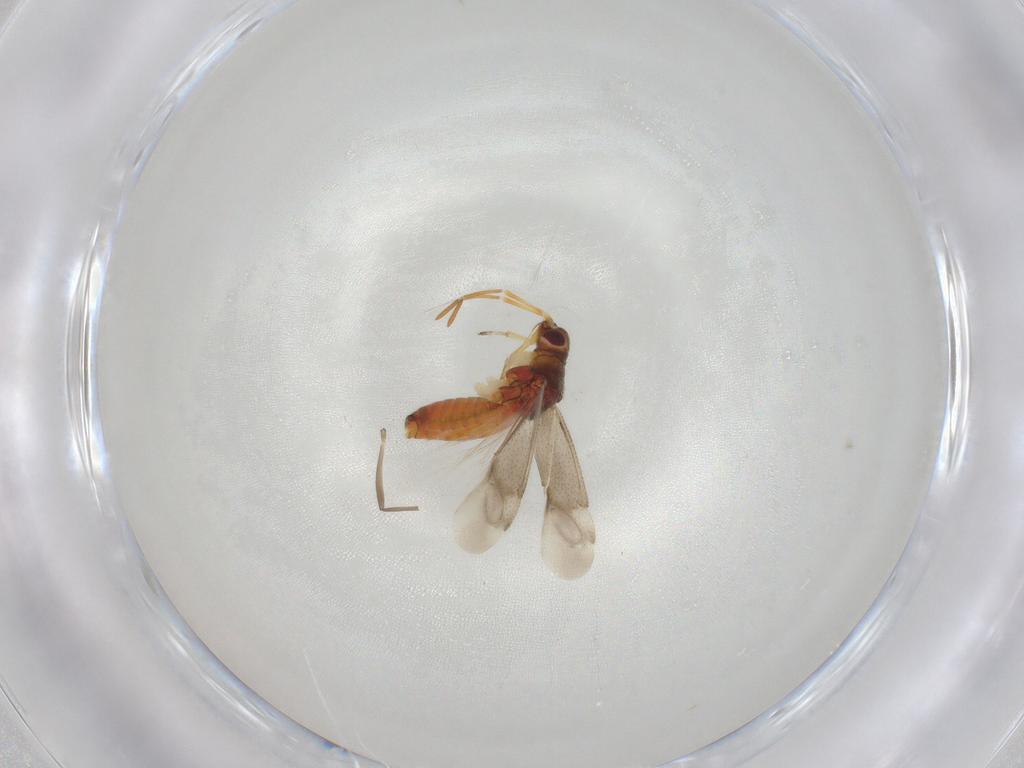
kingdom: Animalia
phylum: Arthropoda
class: Insecta
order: Hemiptera
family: Miridae
